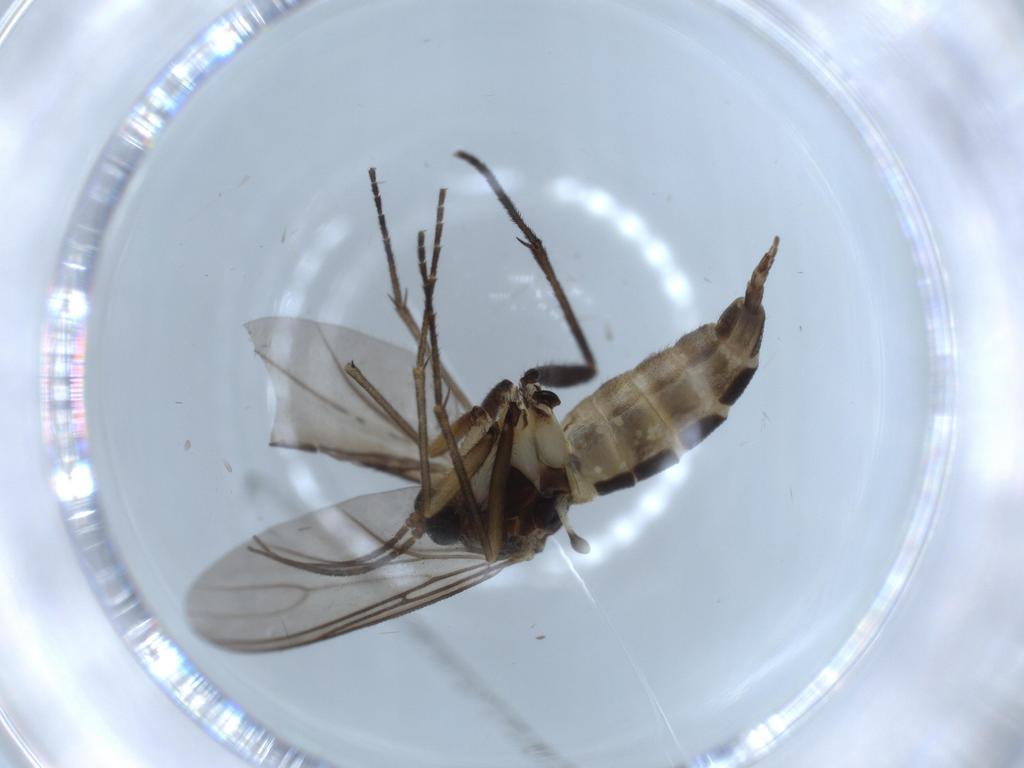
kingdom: Animalia
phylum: Arthropoda
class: Insecta
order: Diptera
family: Sciaridae
